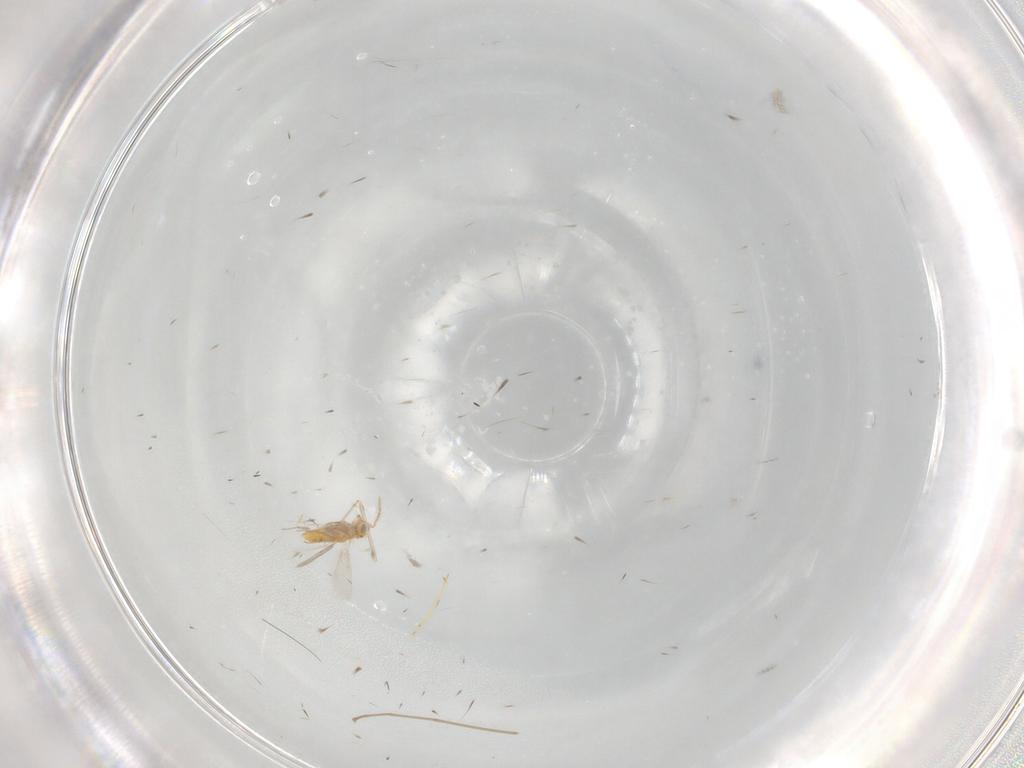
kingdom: Animalia
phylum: Arthropoda
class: Insecta
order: Hymenoptera
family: Aphelinidae
